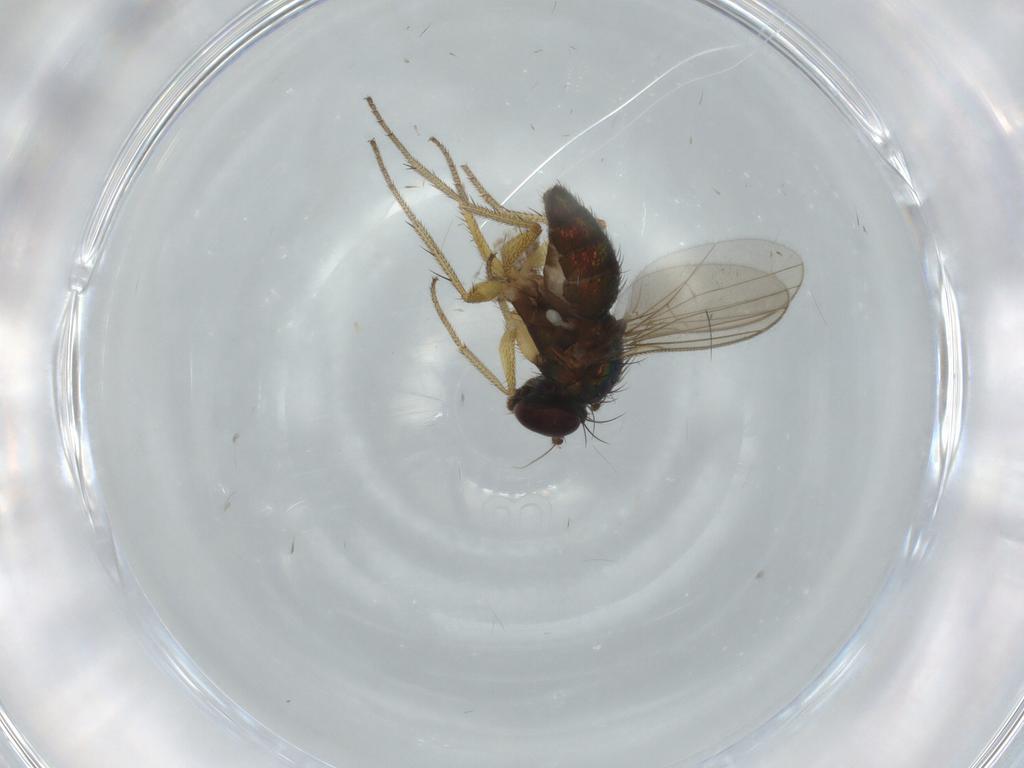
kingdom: Animalia
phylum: Arthropoda
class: Insecta
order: Diptera
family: Dolichopodidae
